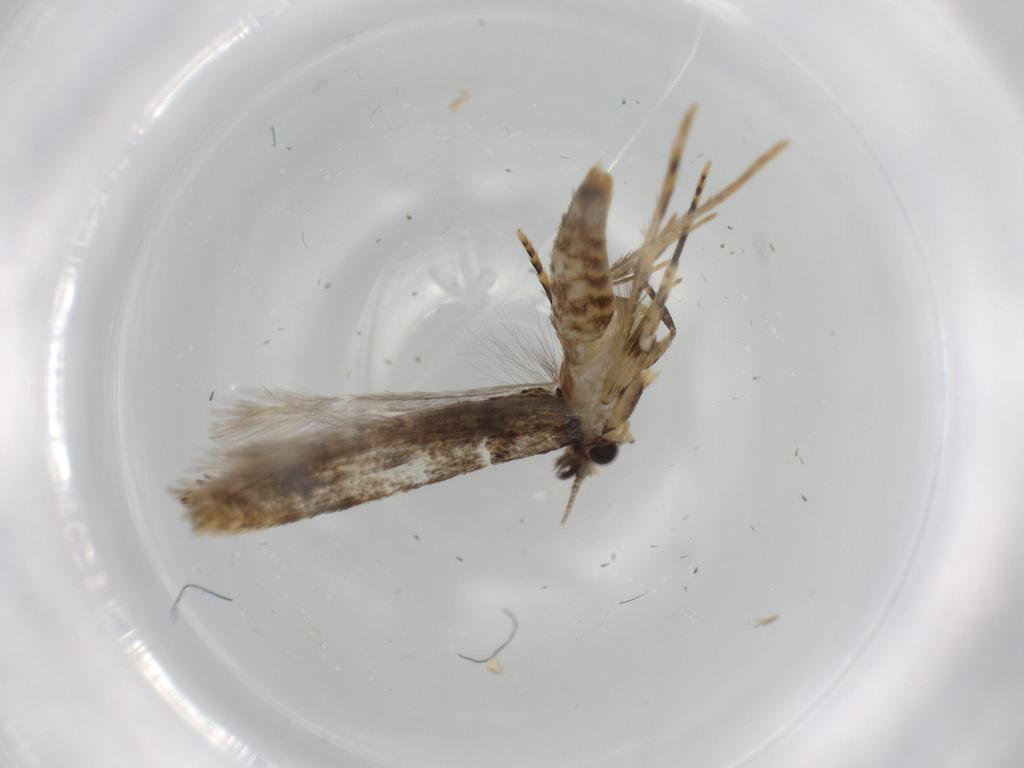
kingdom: Animalia
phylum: Arthropoda
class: Insecta
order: Lepidoptera
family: Tineidae
